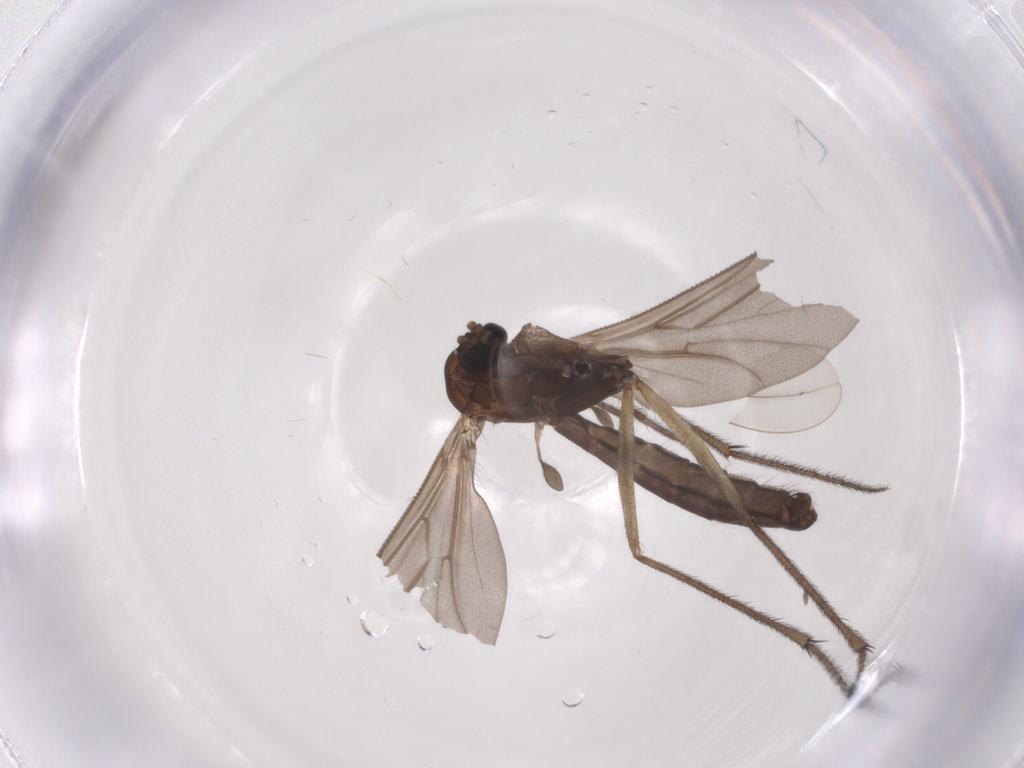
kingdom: Animalia
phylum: Arthropoda
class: Insecta
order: Diptera
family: Ditomyiidae
